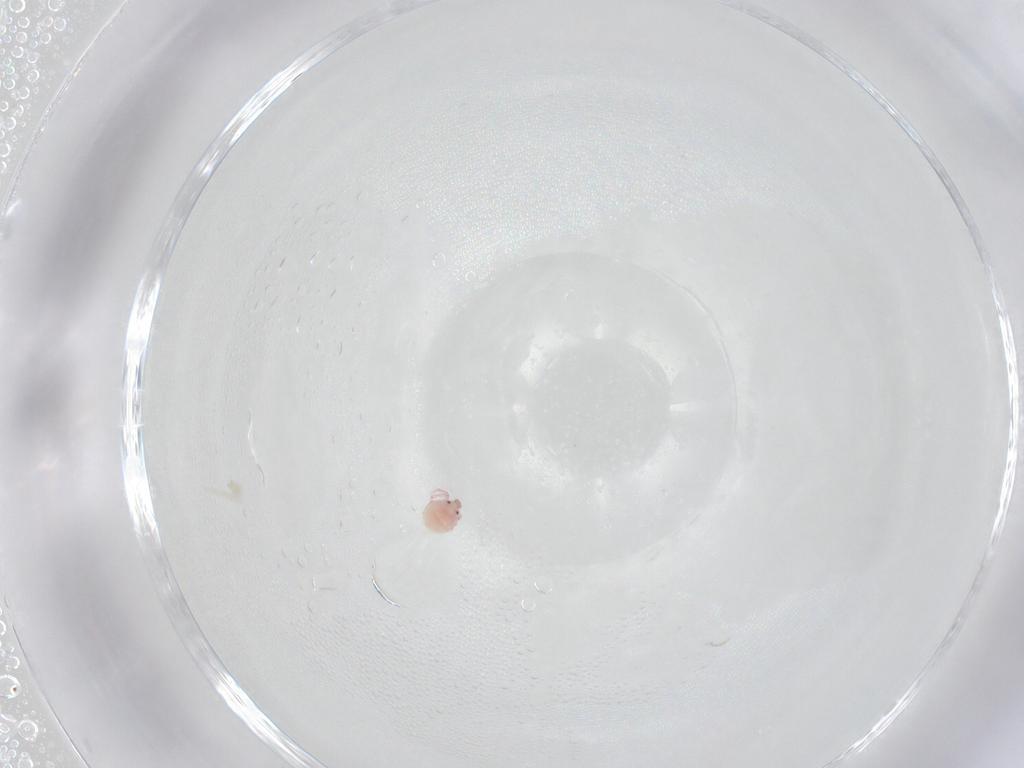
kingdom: Animalia
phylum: Arthropoda
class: Arachnida
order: Trombidiformes
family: Pionidae
